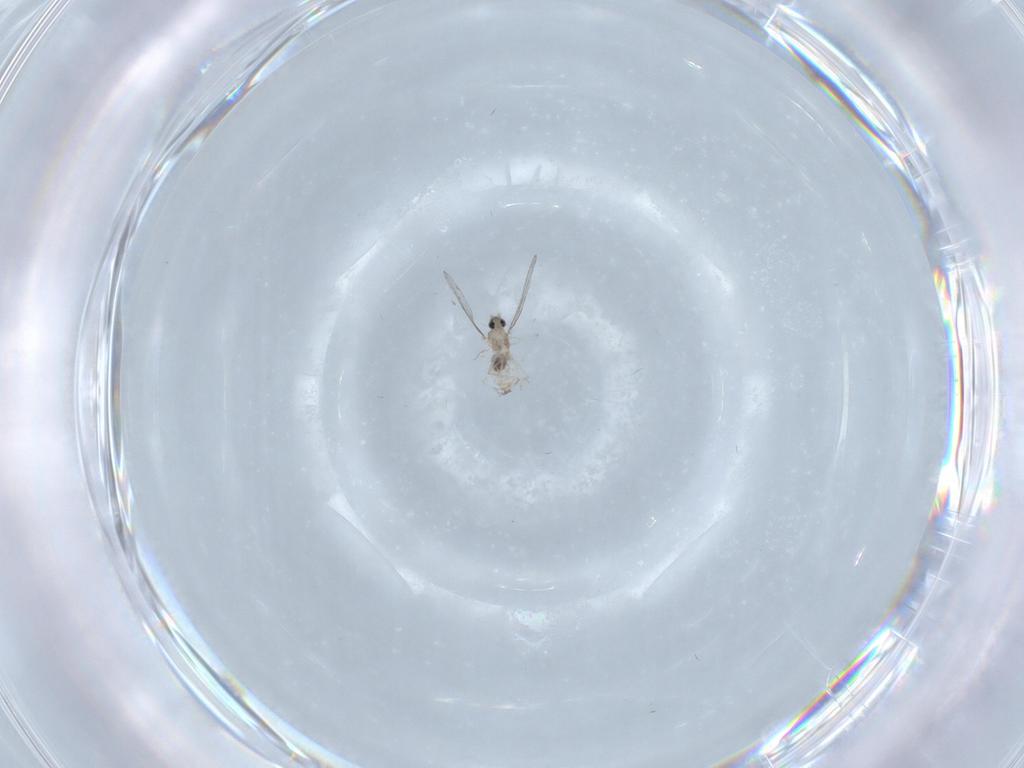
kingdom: Animalia
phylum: Arthropoda
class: Insecta
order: Diptera
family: Cecidomyiidae
